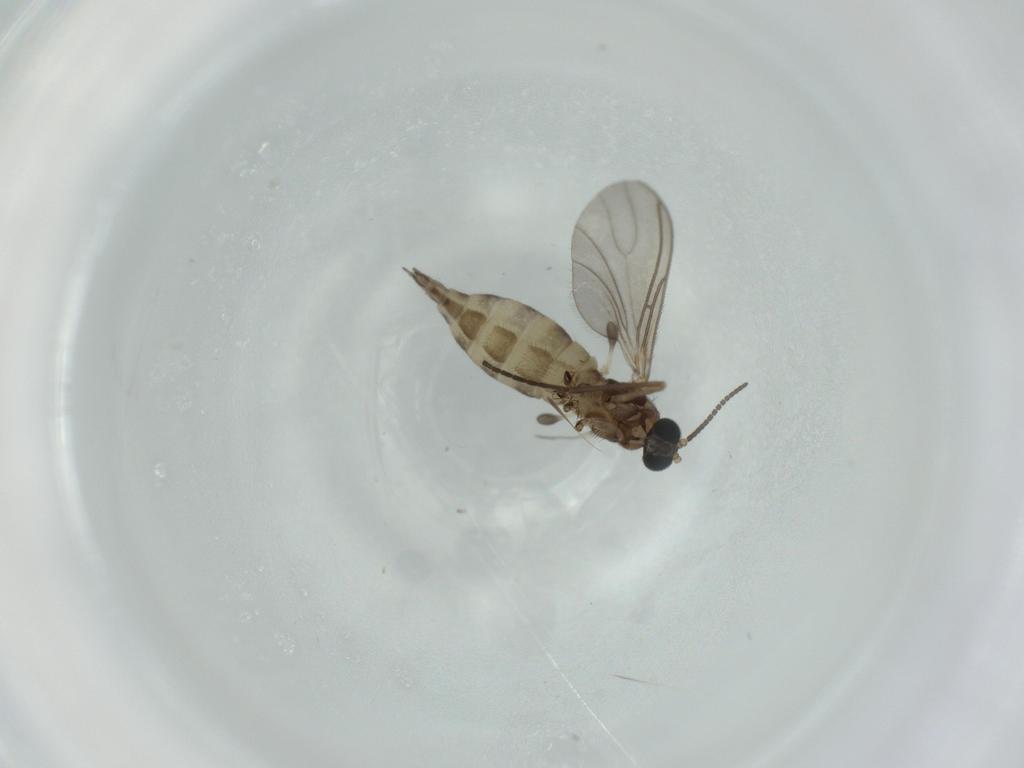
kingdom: Animalia
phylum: Arthropoda
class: Insecta
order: Diptera
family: Sciaridae
